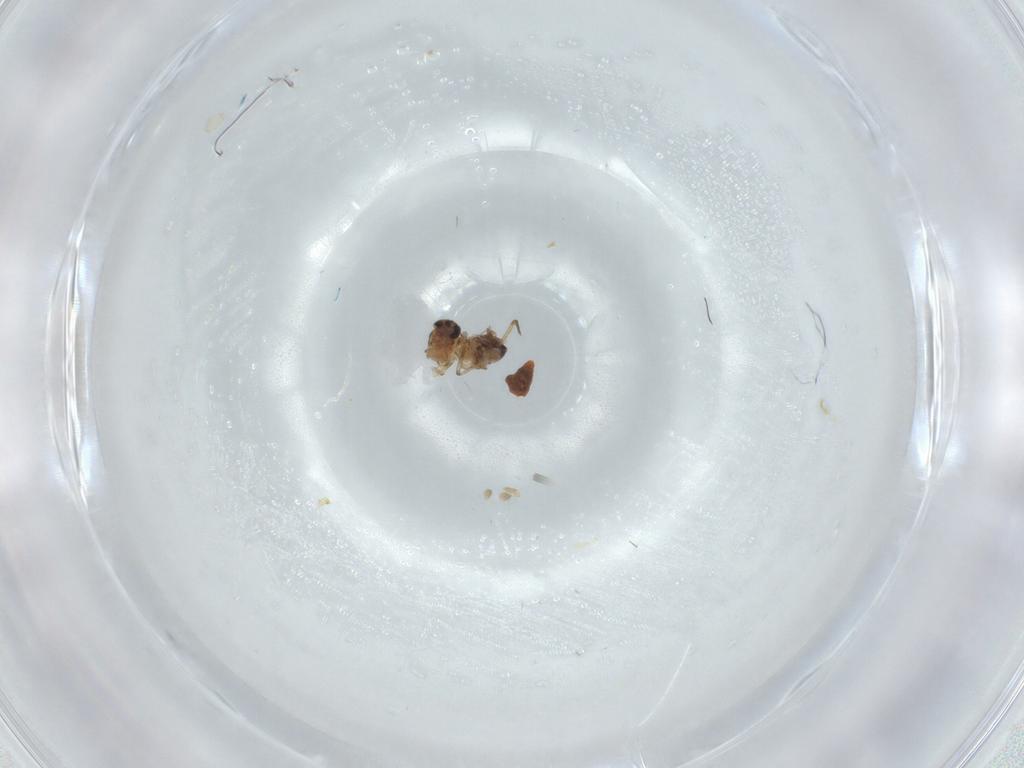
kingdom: Animalia
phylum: Arthropoda
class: Insecta
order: Diptera
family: Chironomidae
